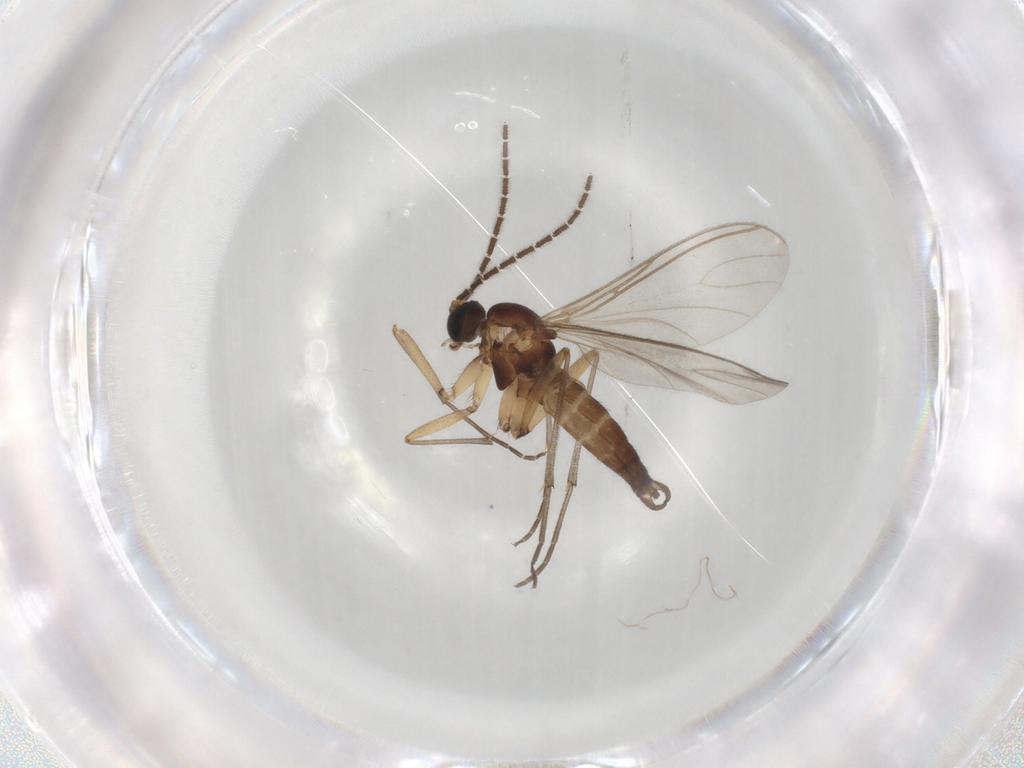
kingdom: Animalia
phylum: Arthropoda
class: Insecta
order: Diptera
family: Sciaridae
